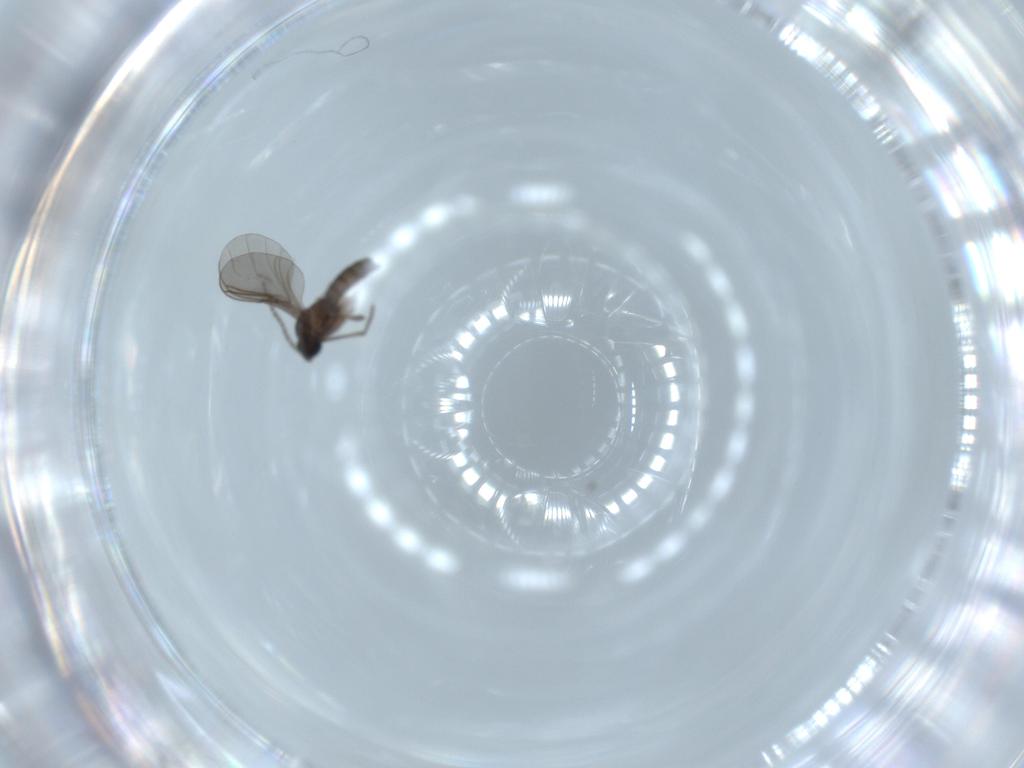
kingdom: Animalia
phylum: Arthropoda
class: Insecta
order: Diptera
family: Sciaridae
